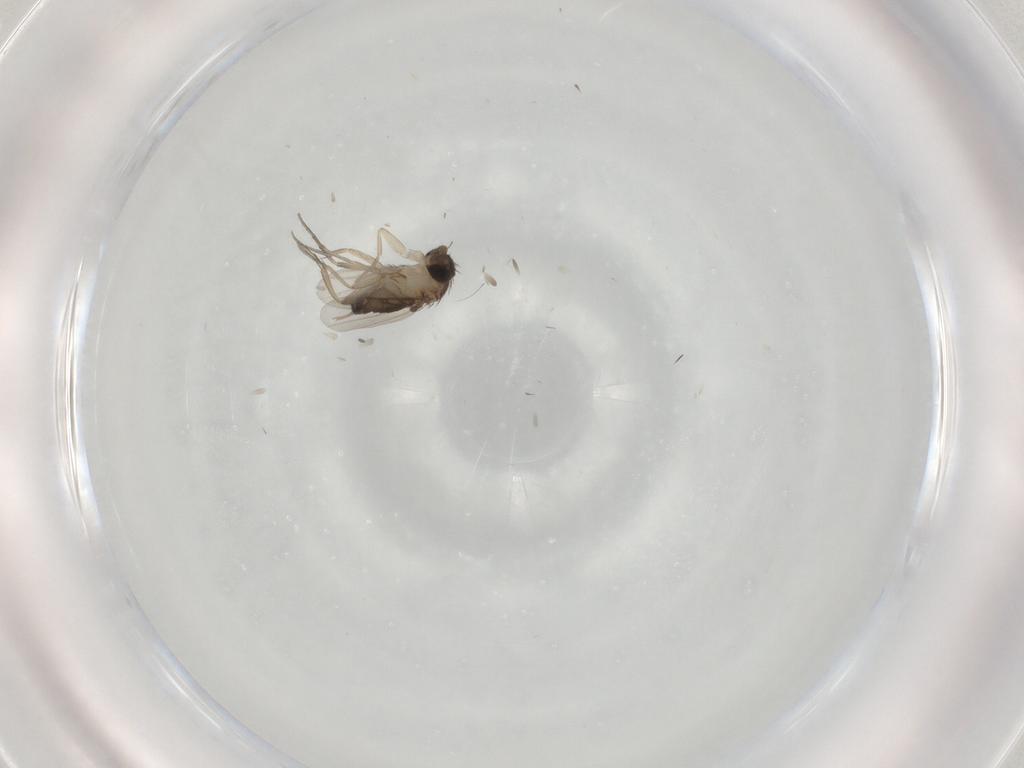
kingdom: Animalia
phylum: Arthropoda
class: Insecta
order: Diptera
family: Phoridae
